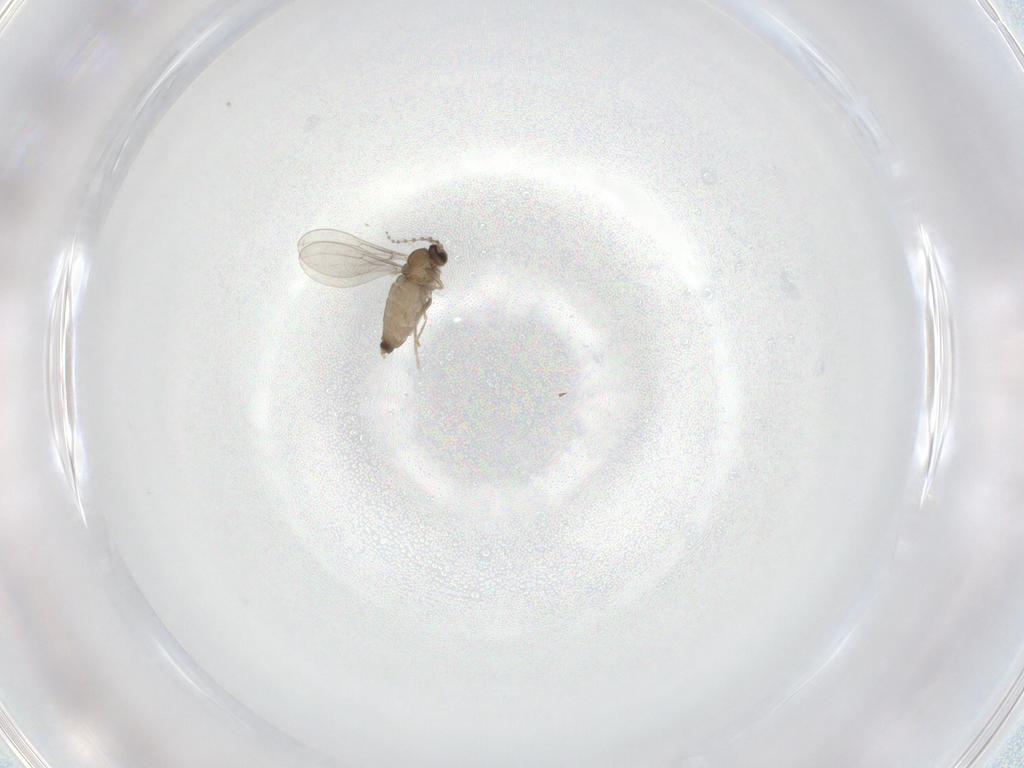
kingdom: Animalia
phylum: Arthropoda
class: Insecta
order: Diptera
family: Cecidomyiidae
